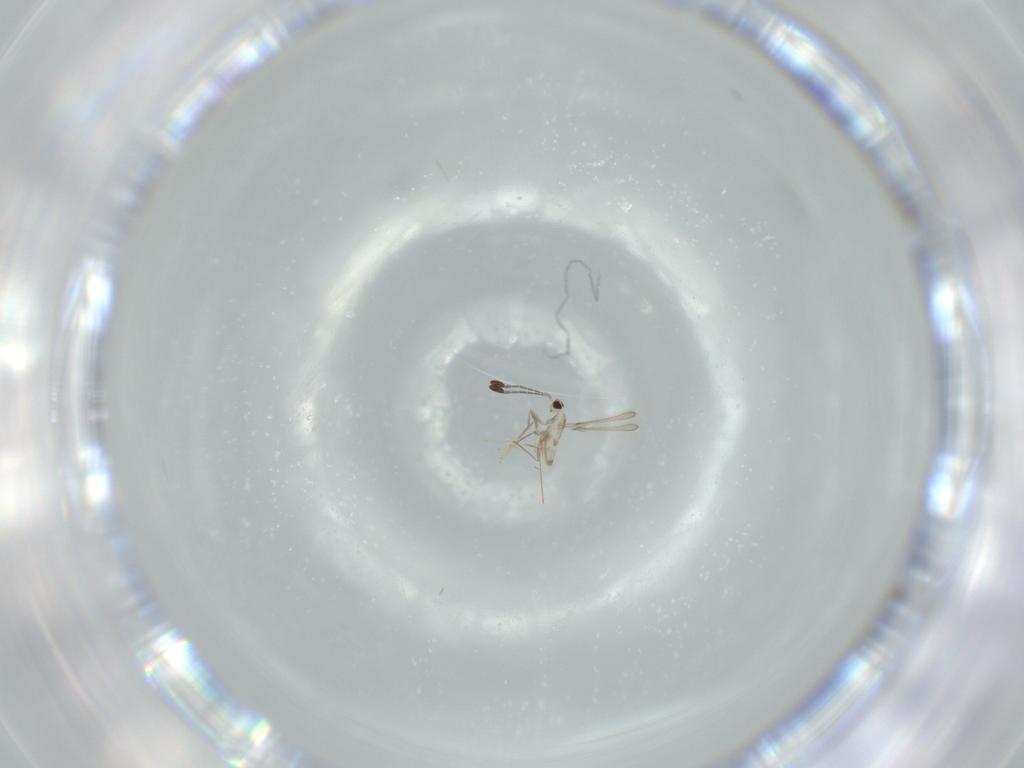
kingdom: Animalia
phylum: Arthropoda
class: Insecta
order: Hymenoptera
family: Mymaridae
